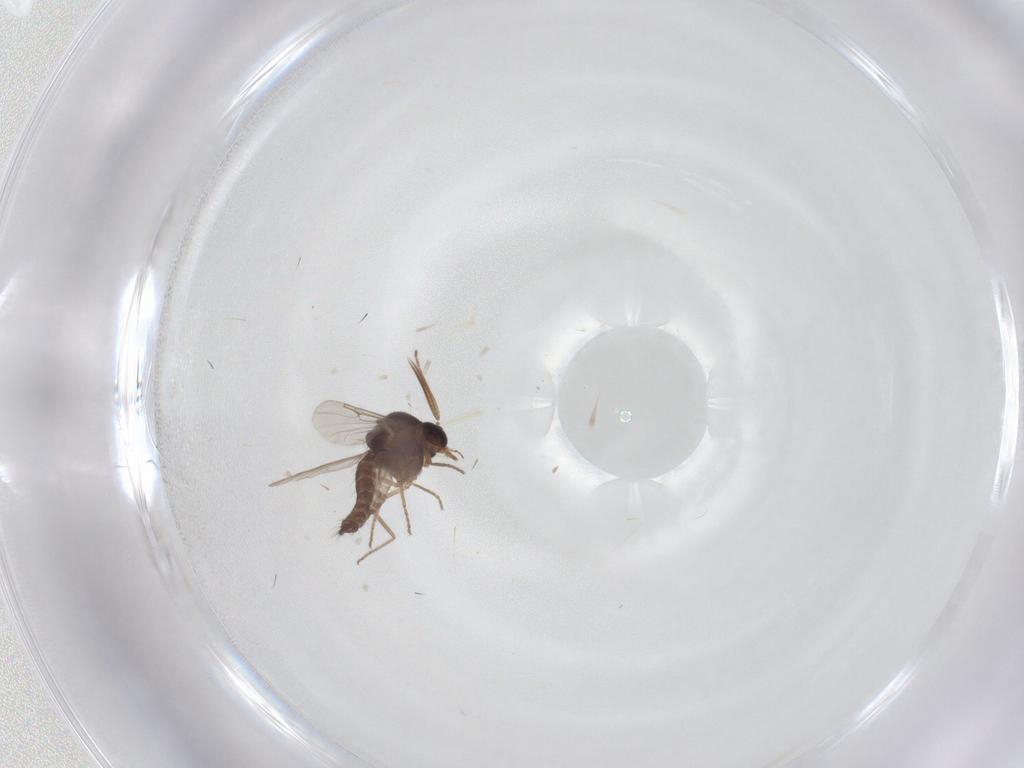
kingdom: Animalia
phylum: Arthropoda
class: Insecta
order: Diptera
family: Ceratopogonidae
